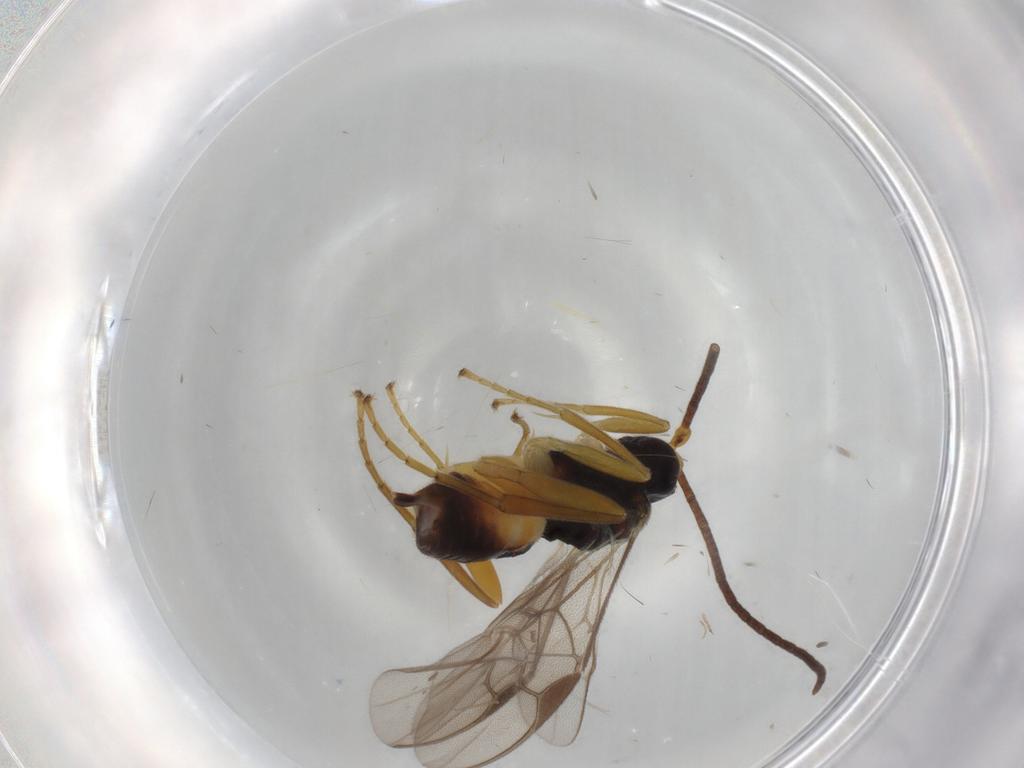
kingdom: Animalia
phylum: Arthropoda
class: Insecta
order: Hymenoptera
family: Braconidae
